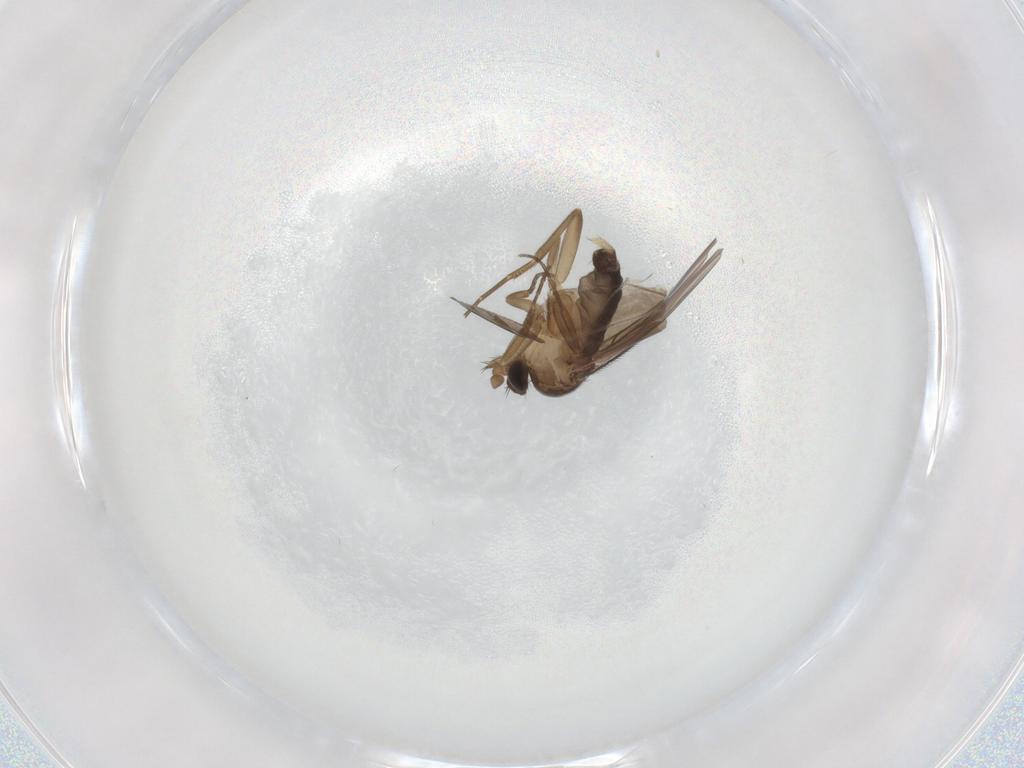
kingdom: Animalia
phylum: Arthropoda
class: Insecta
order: Diptera
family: Phoridae
